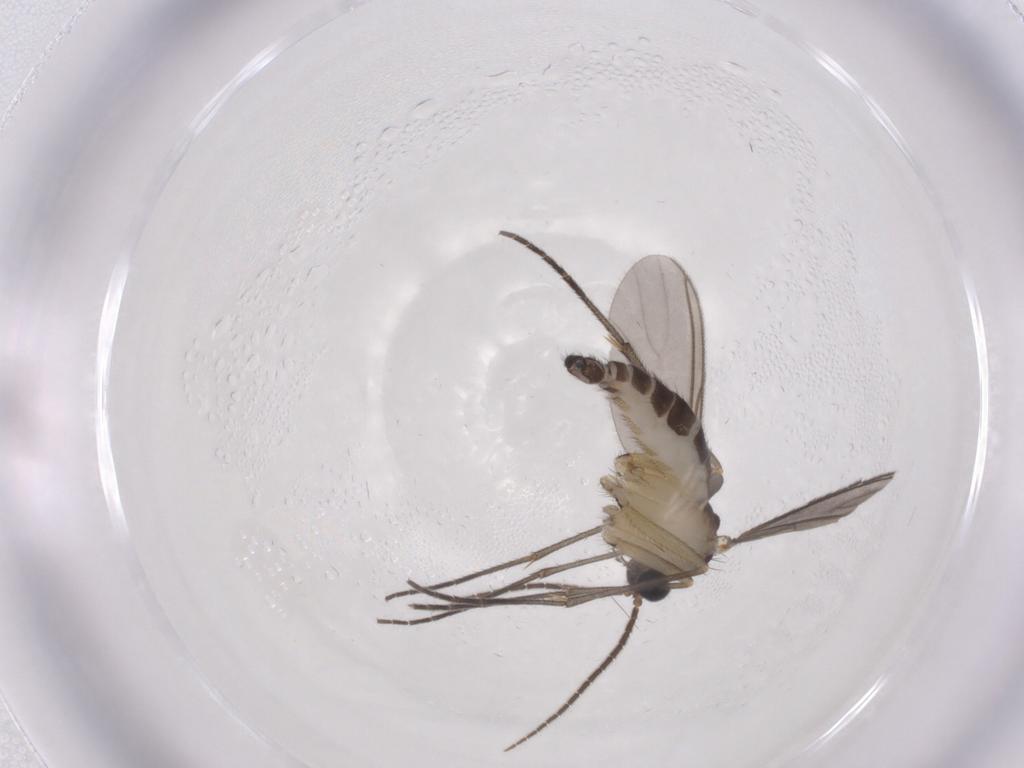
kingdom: Animalia
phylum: Arthropoda
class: Insecta
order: Diptera
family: Sciaridae
